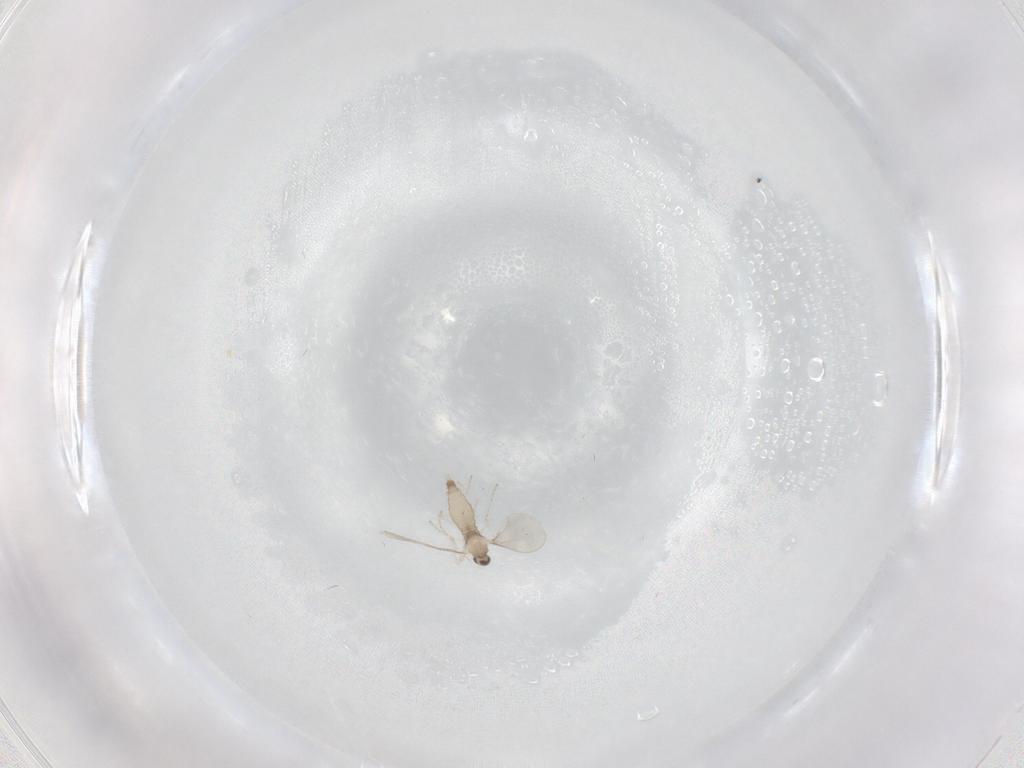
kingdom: Animalia
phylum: Arthropoda
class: Insecta
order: Diptera
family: Cecidomyiidae
